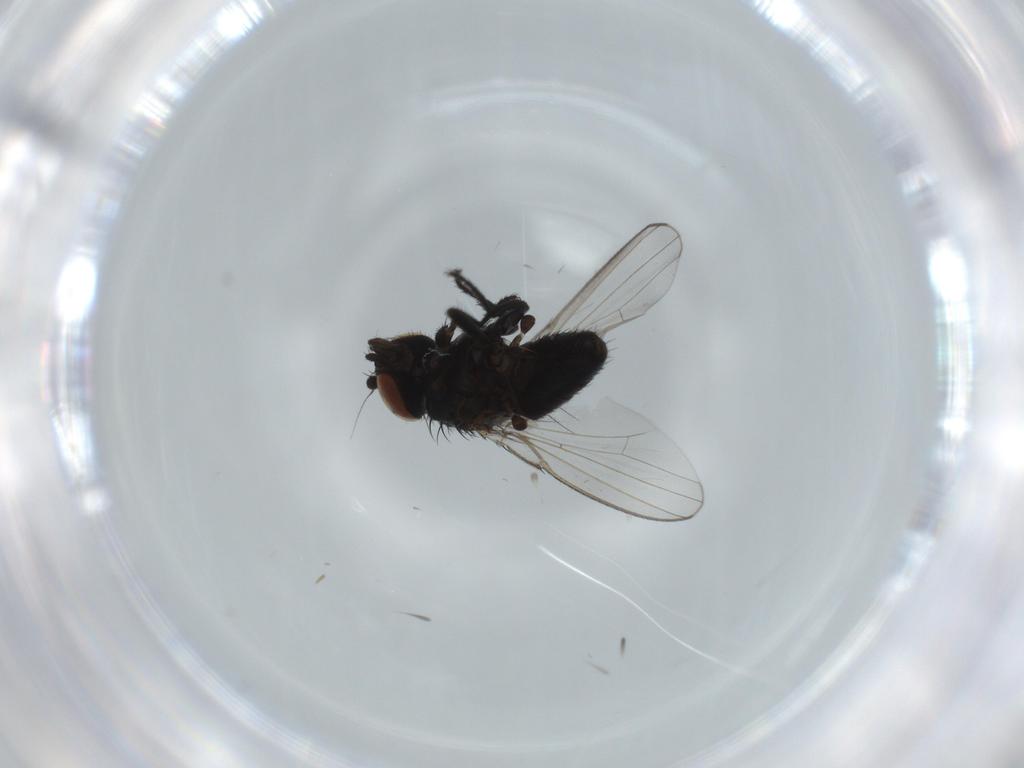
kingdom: Animalia
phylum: Arthropoda
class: Insecta
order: Diptera
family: Milichiidae
